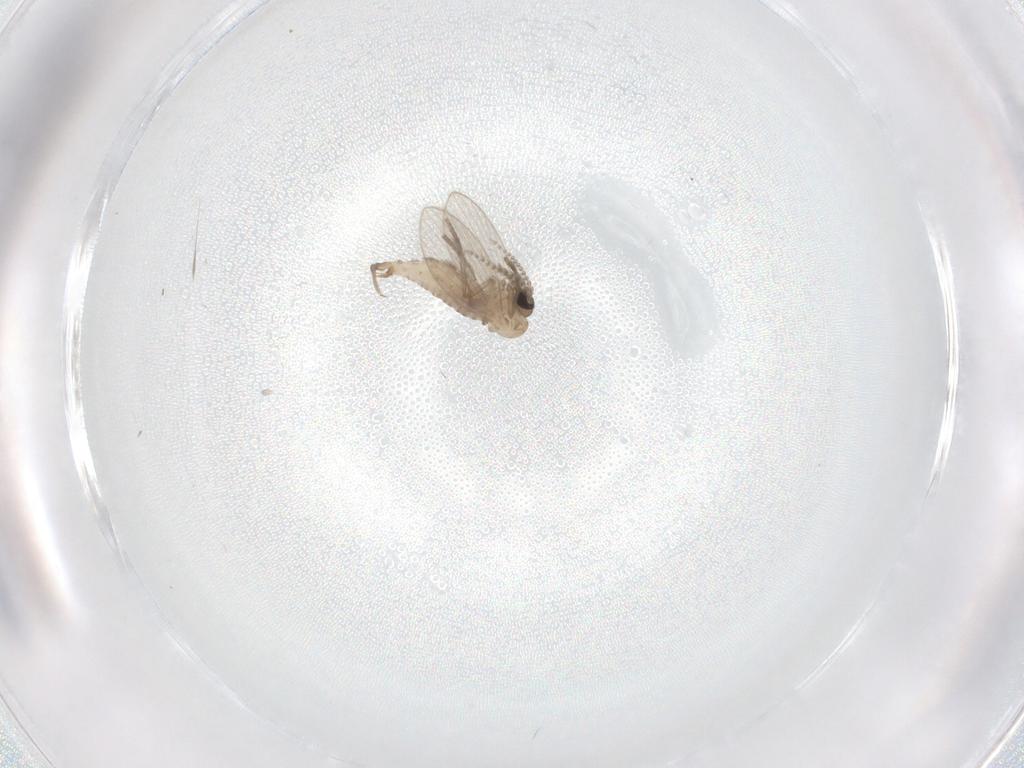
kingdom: Animalia
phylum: Arthropoda
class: Insecta
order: Diptera
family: Psychodidae
